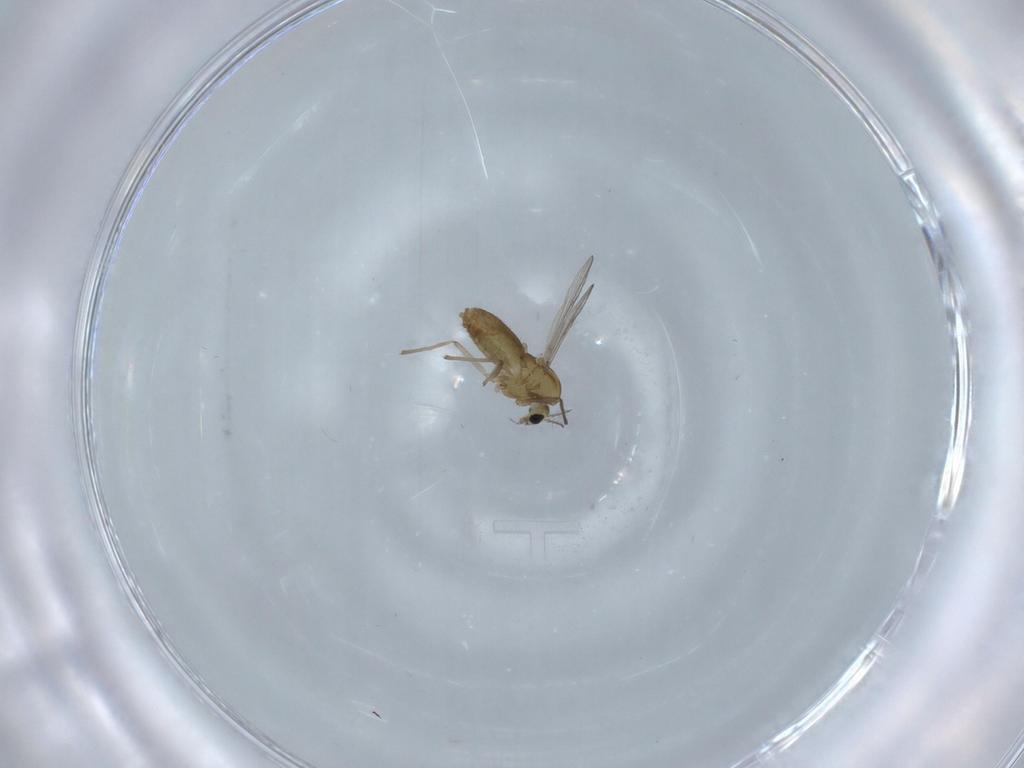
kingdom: Animalia
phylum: Arthropoda
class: Insecta
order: Diptera
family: Chironomidae
